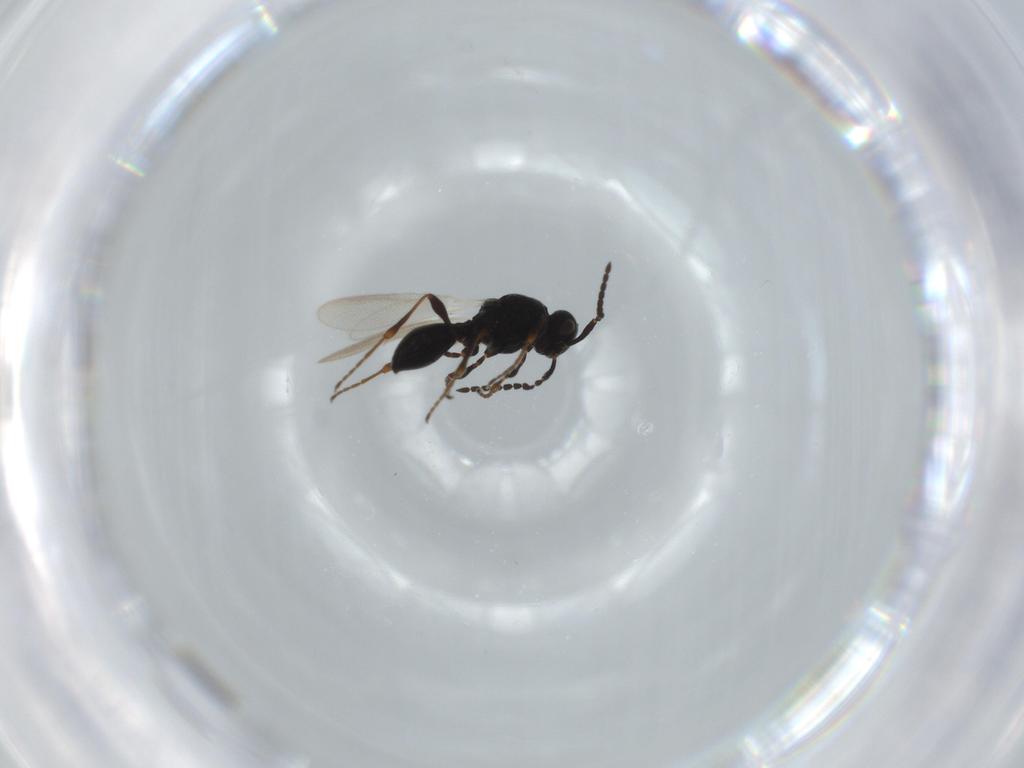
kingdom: Animalia
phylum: Arthropoda
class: Insecta
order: Hymenoptera
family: Platygastridae
